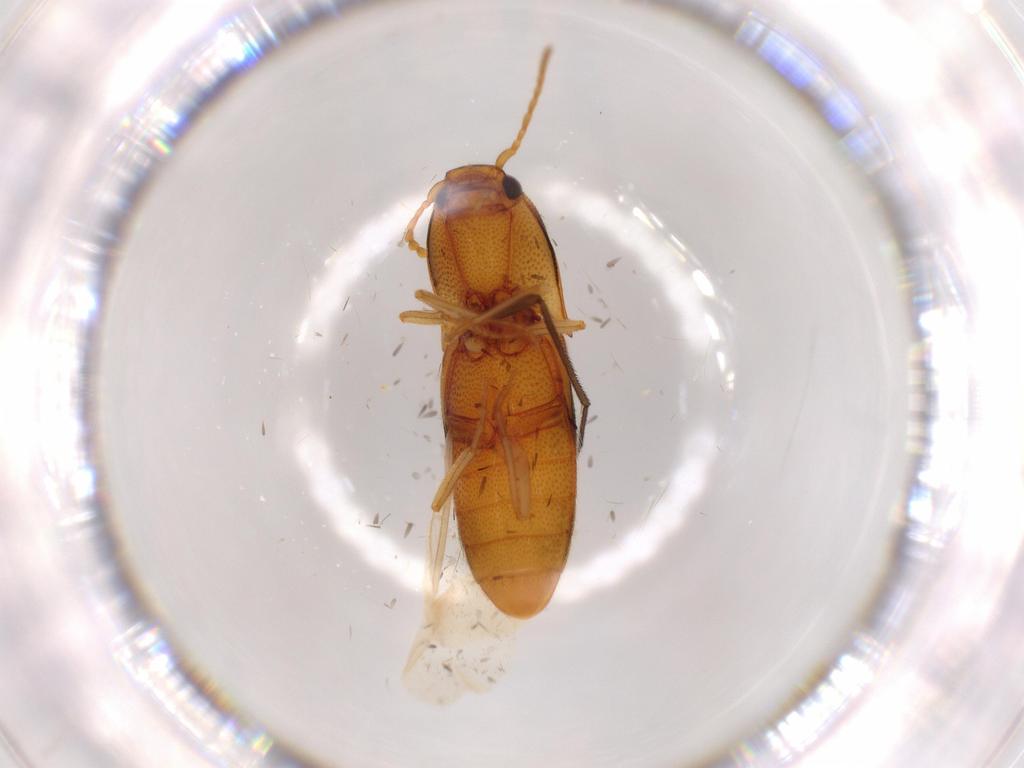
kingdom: Animalia
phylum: Arthropoda
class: Insecta
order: Coleoptera
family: Elateridae
